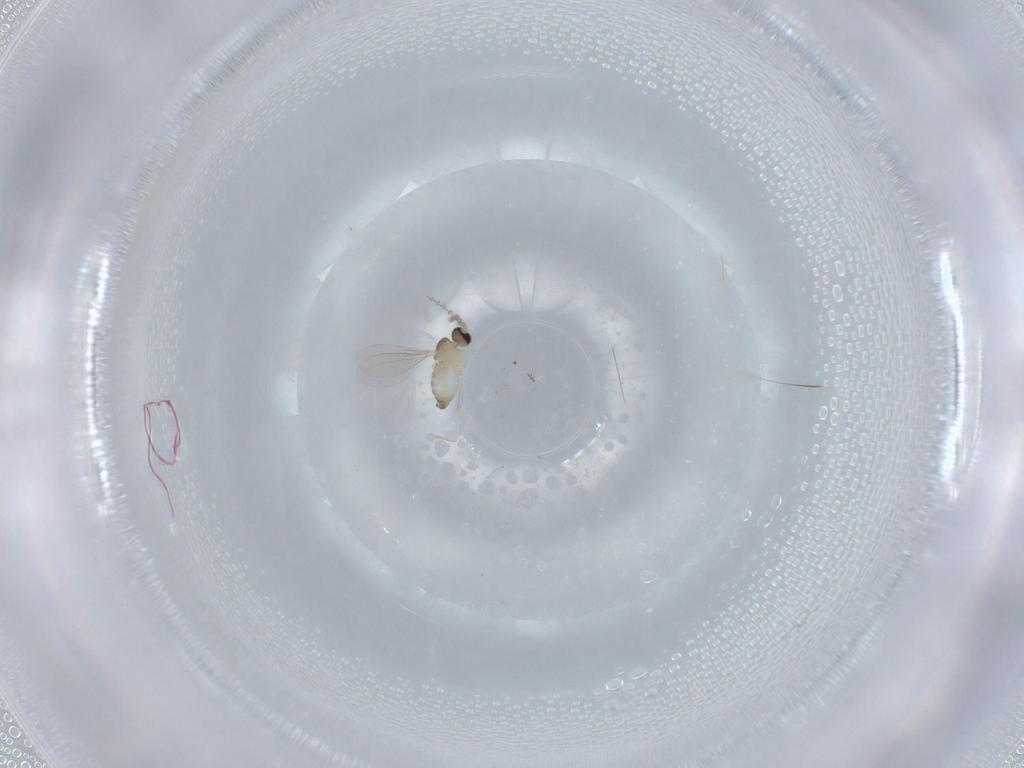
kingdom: Animalia
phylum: Arthropoda
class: Insecta
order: Diptera
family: Cecidomyiidae
